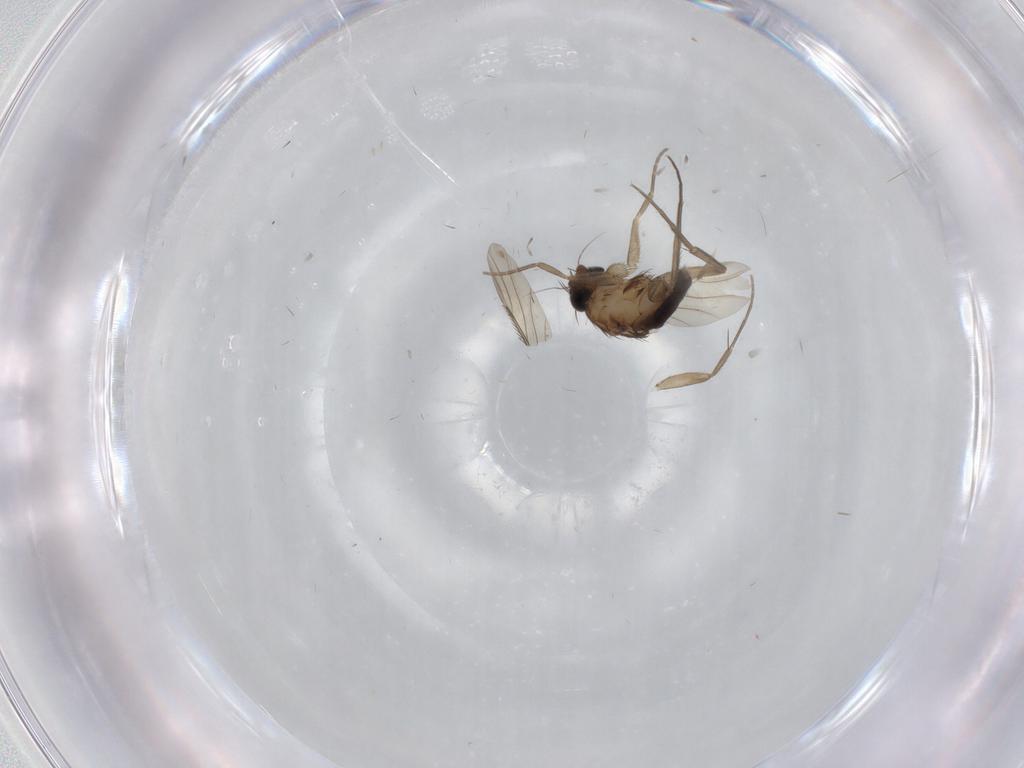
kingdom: Animalia
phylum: Arthropoda
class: Insecta
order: Diptera
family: Phoridae
